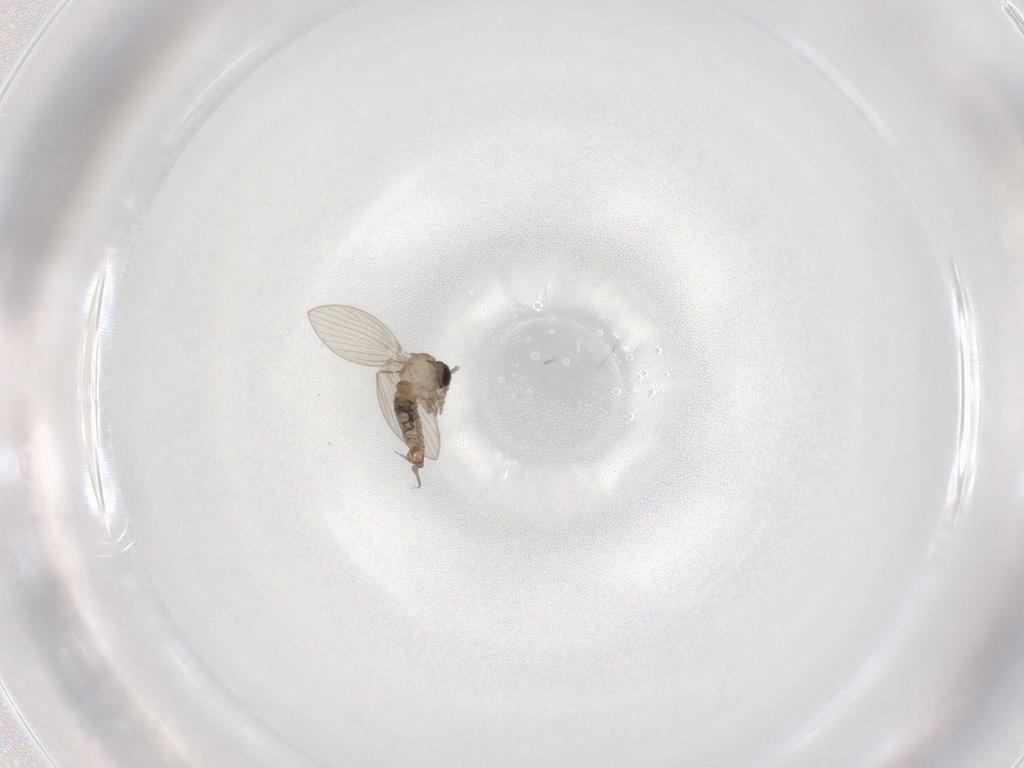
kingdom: Animalia
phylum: Arthropoda
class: Insecta
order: Diptera
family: Psychodidae
